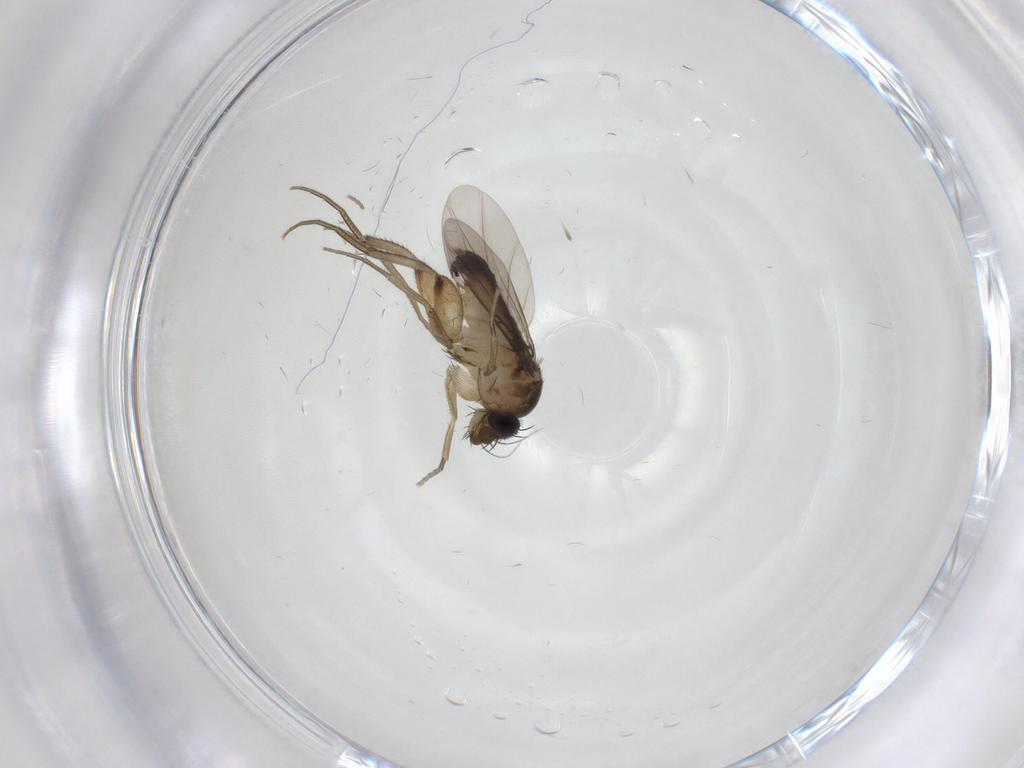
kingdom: Animalia
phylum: Arthropoda
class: Insecta
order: Diptera
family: Phoridae
